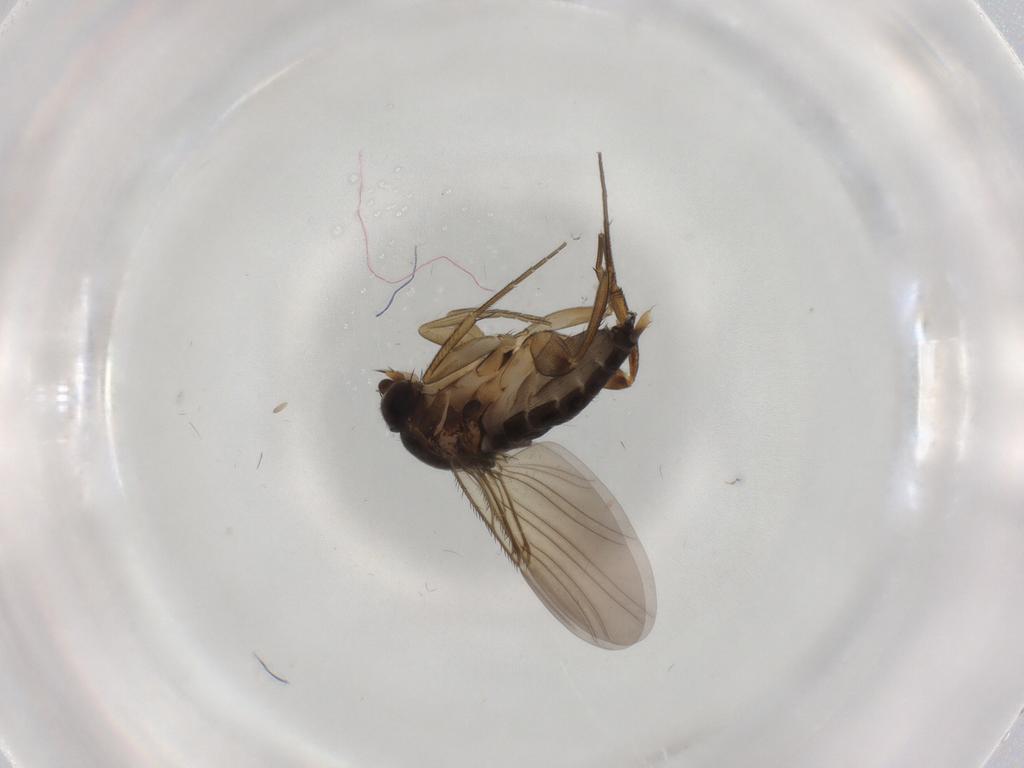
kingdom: Animalia
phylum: Arthropoda
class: Insecta
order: Diptera
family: Phoridae
